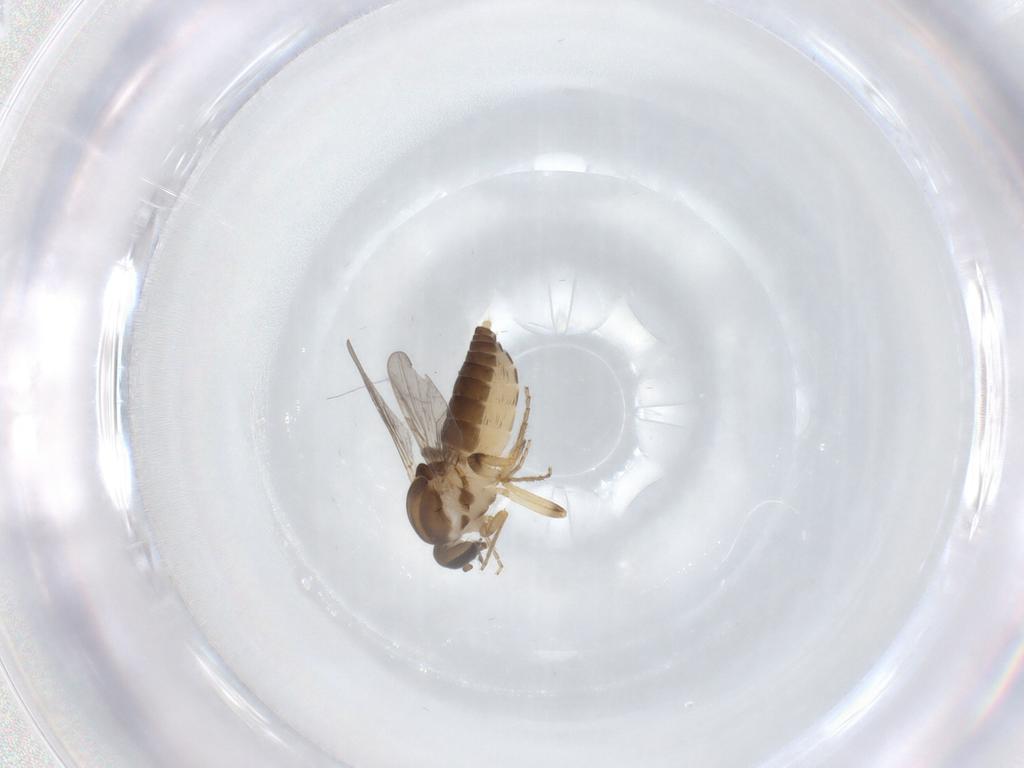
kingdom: Animalia
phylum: Arthropoda
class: Insecta
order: Diptera
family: Ceratopogonidae
